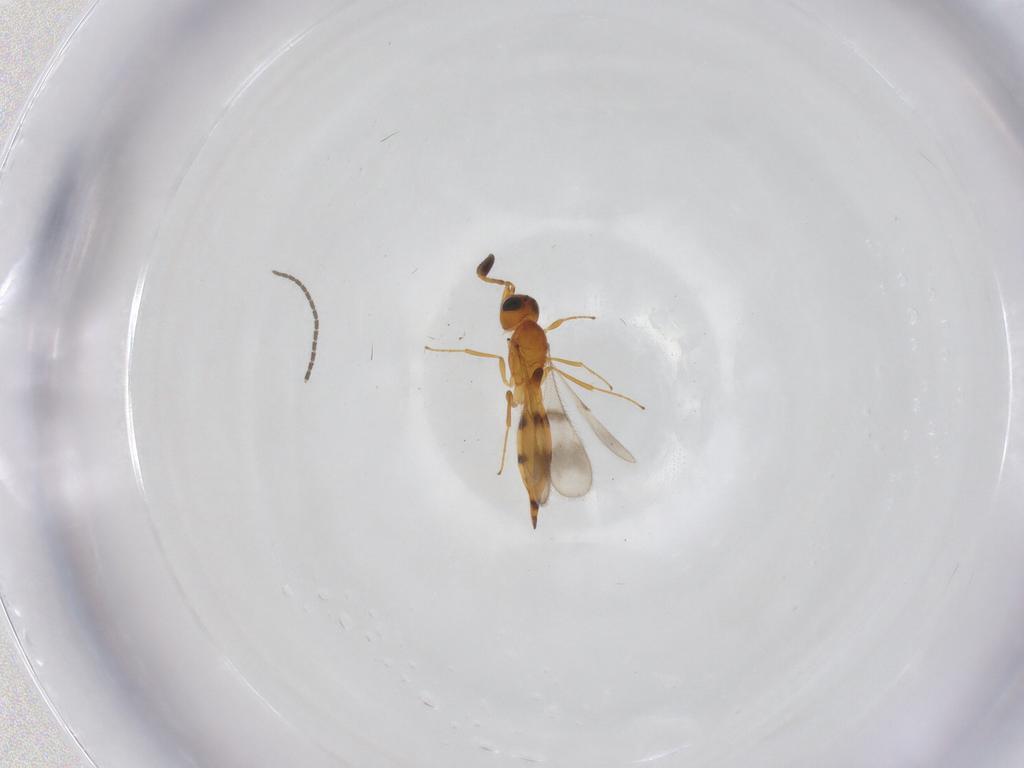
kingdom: Animalia
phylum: Arthropoda
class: Insecta
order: Hymenoptera
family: Scelionidae
